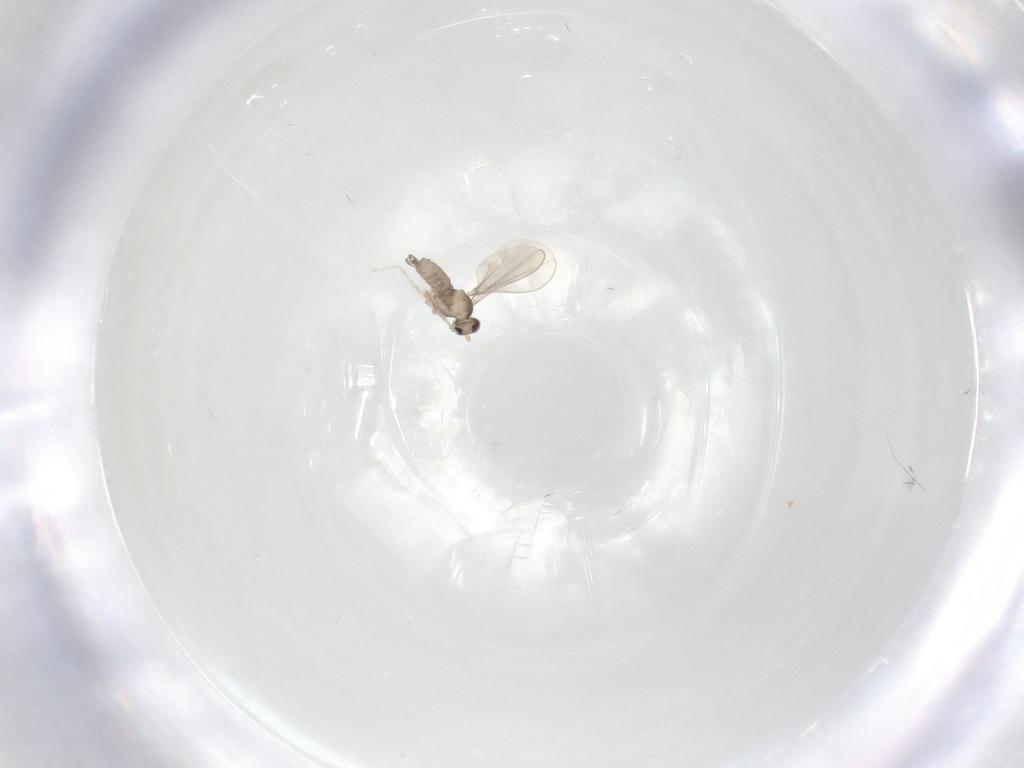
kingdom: Animalia
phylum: Arthropoda
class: Insecta
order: Diptera
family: Cecidomyiidae
